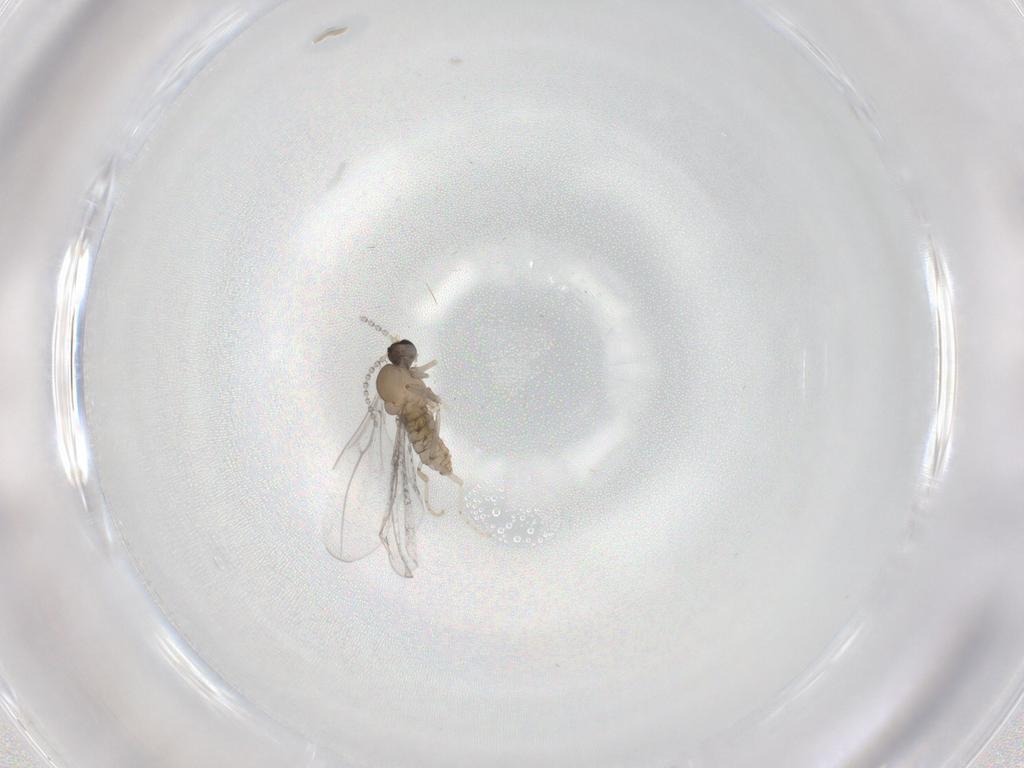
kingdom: Animalia
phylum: Arthropoda
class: Insecta
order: Diptera
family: Cecidomyiidae
